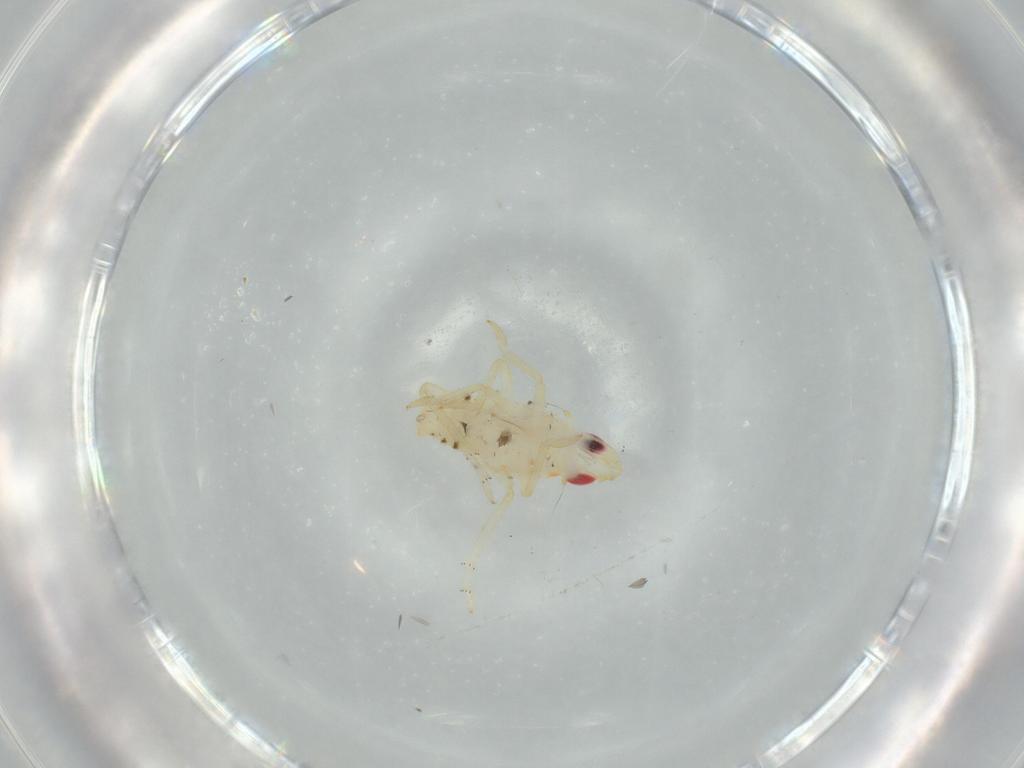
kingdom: Animalia
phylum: Arthropoda
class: Insecta
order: Hemiptera
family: Tropiduchidae
